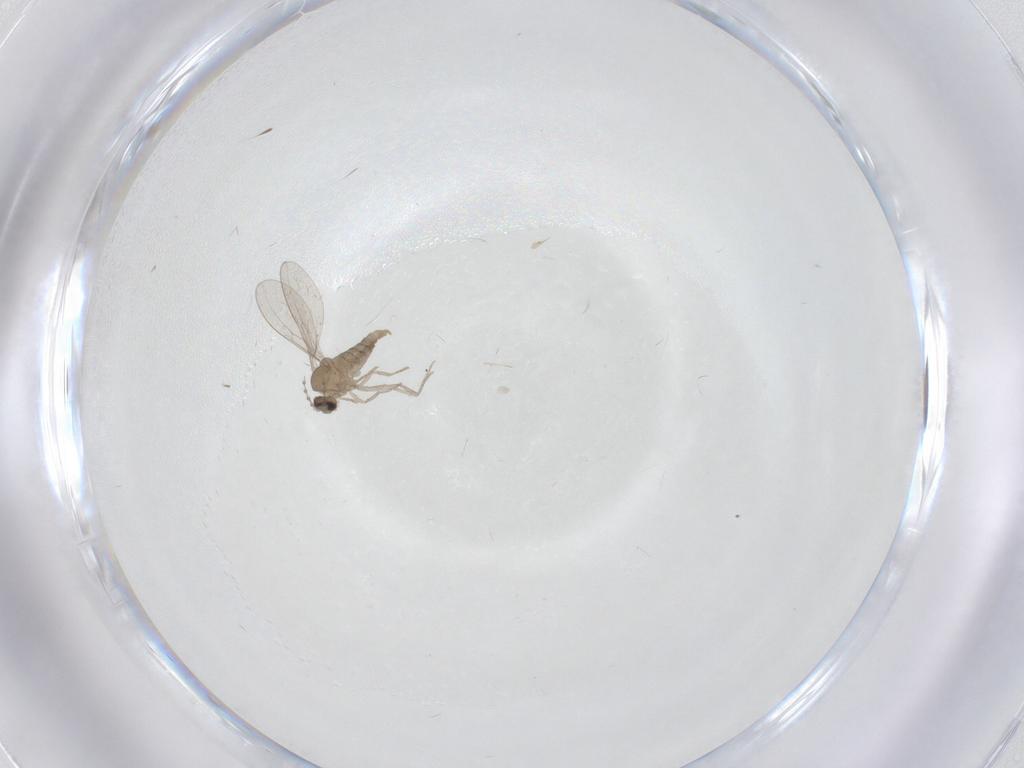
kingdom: Animalia
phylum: Arthropoda
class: Insecta
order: Diptera
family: Cecidomyiidae
